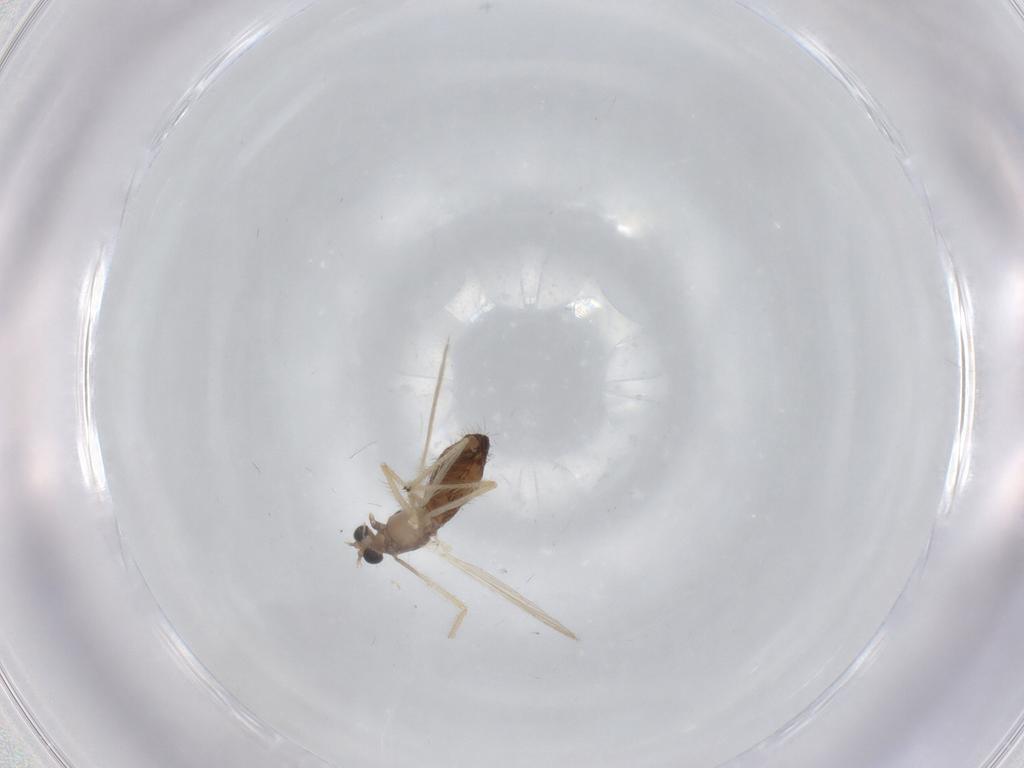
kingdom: Animalia
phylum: Arthropoda
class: Insecta
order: Diptera
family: Chironomidae
